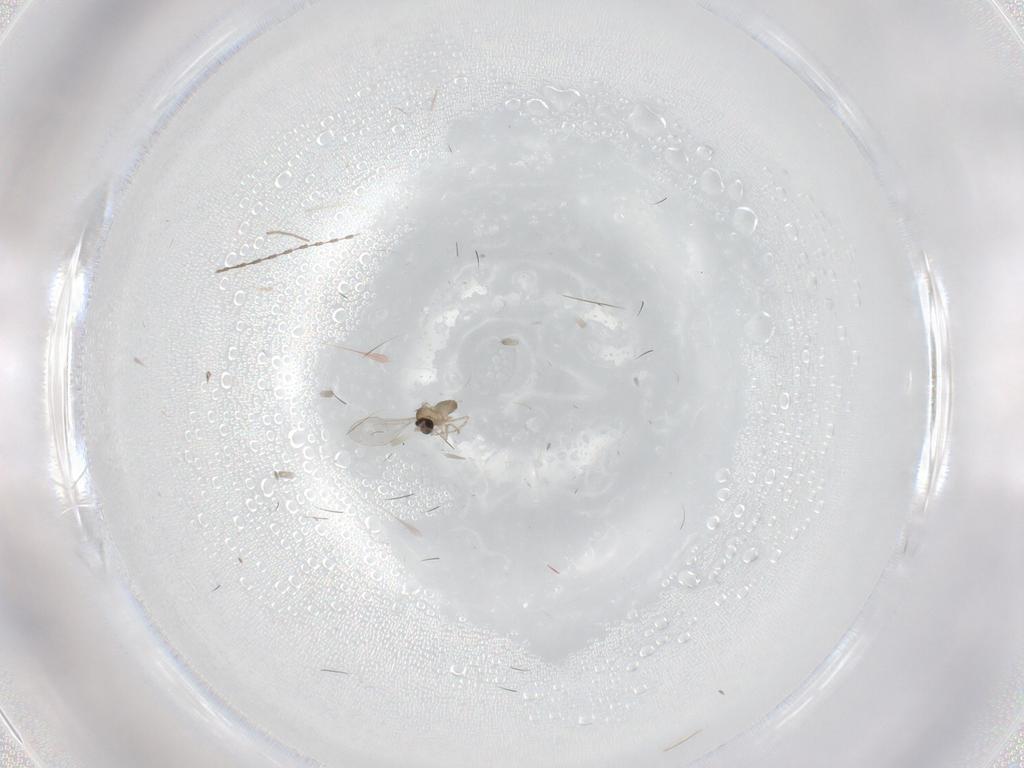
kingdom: Animalia
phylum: Arthropoda
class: Insecta
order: Diptera
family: Cecidomyiidae
